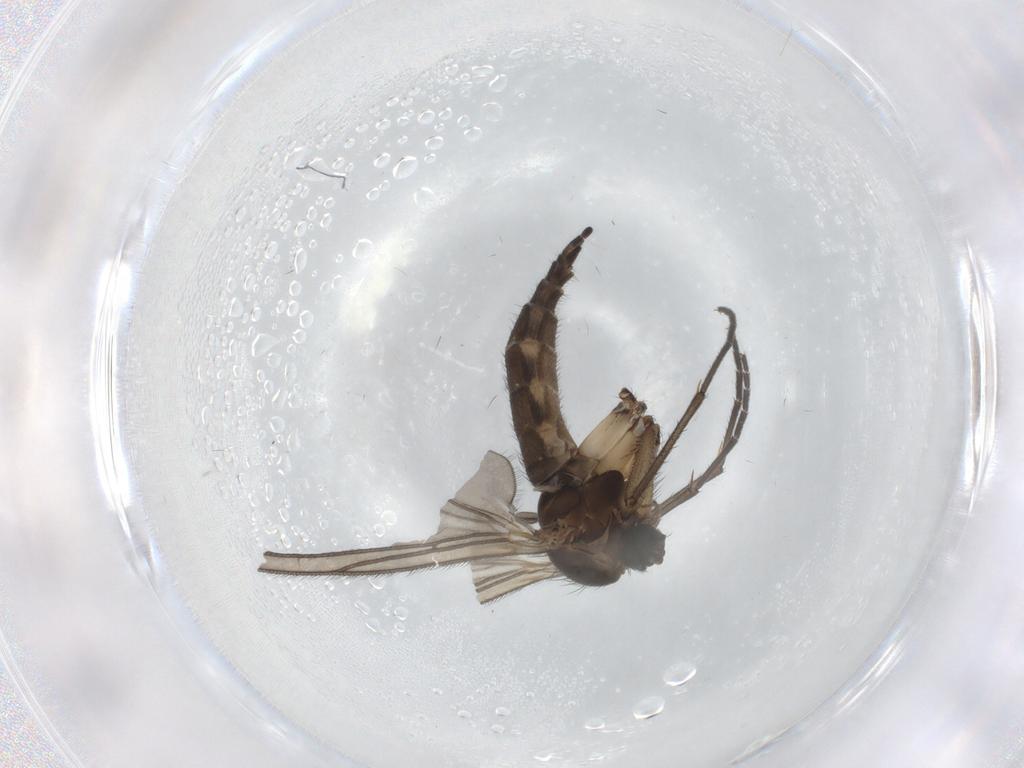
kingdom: Animalia
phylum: Arthropoda
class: Insecta
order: Diptera
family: Sciaridae
